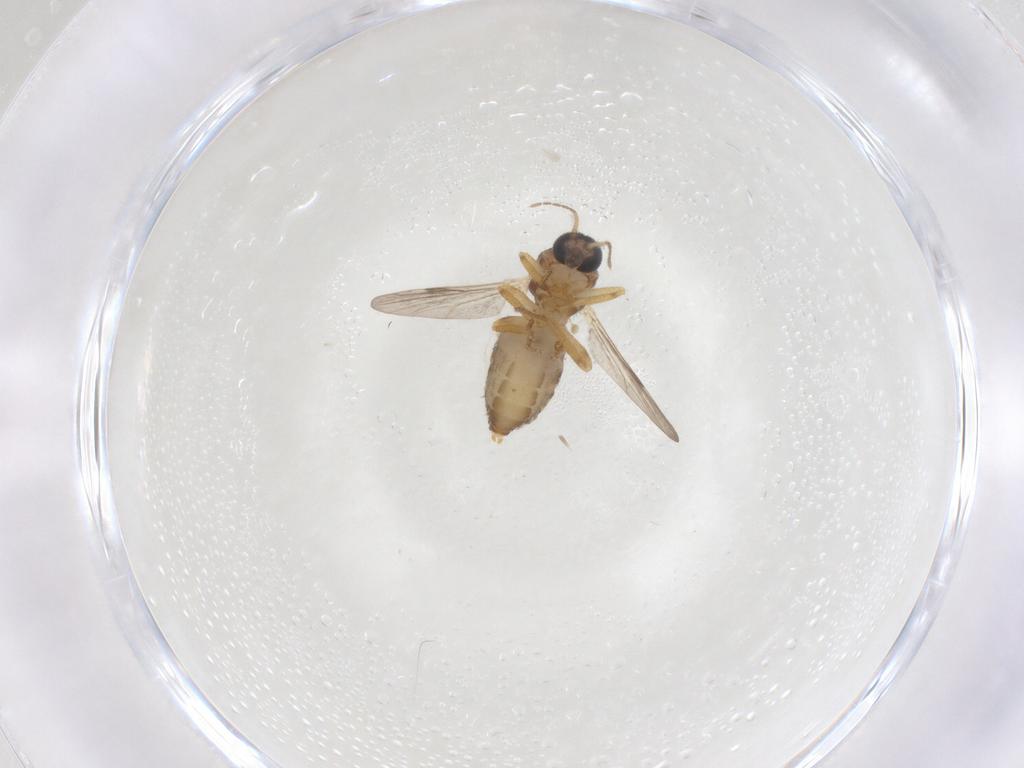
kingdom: Animalia
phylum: Arthropoda
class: Insecta
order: Diptera
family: Ceratopogonidae
